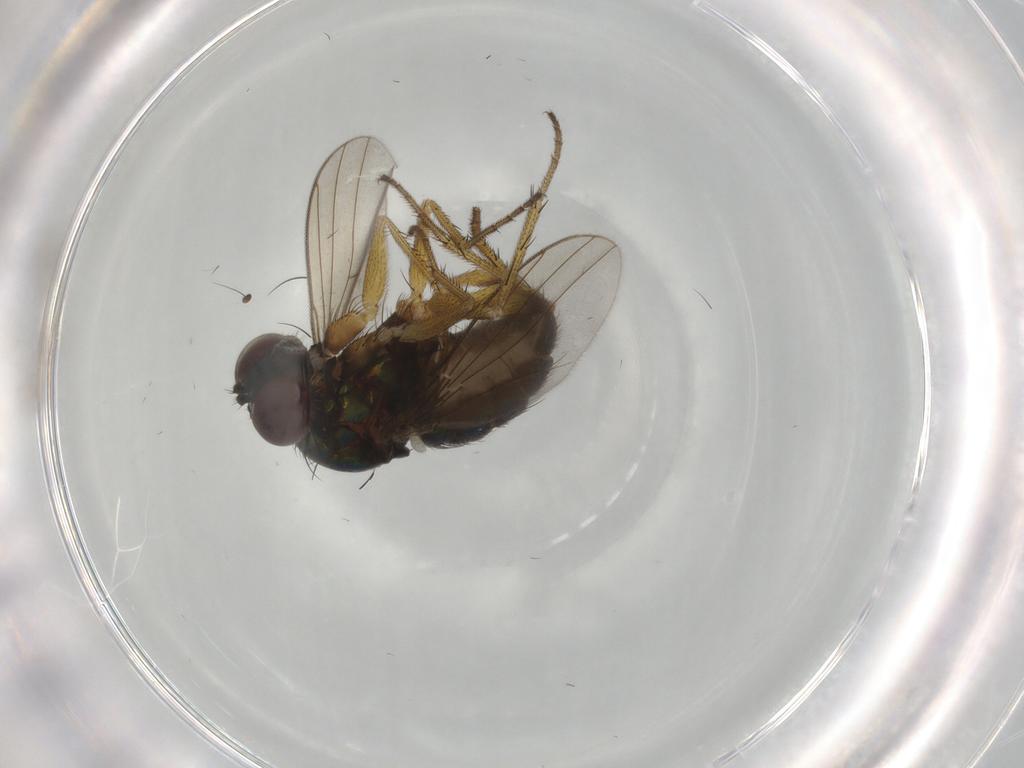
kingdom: Animalia
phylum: Arthropoda
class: Insecta
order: Diptera
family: Dolichopodidae
